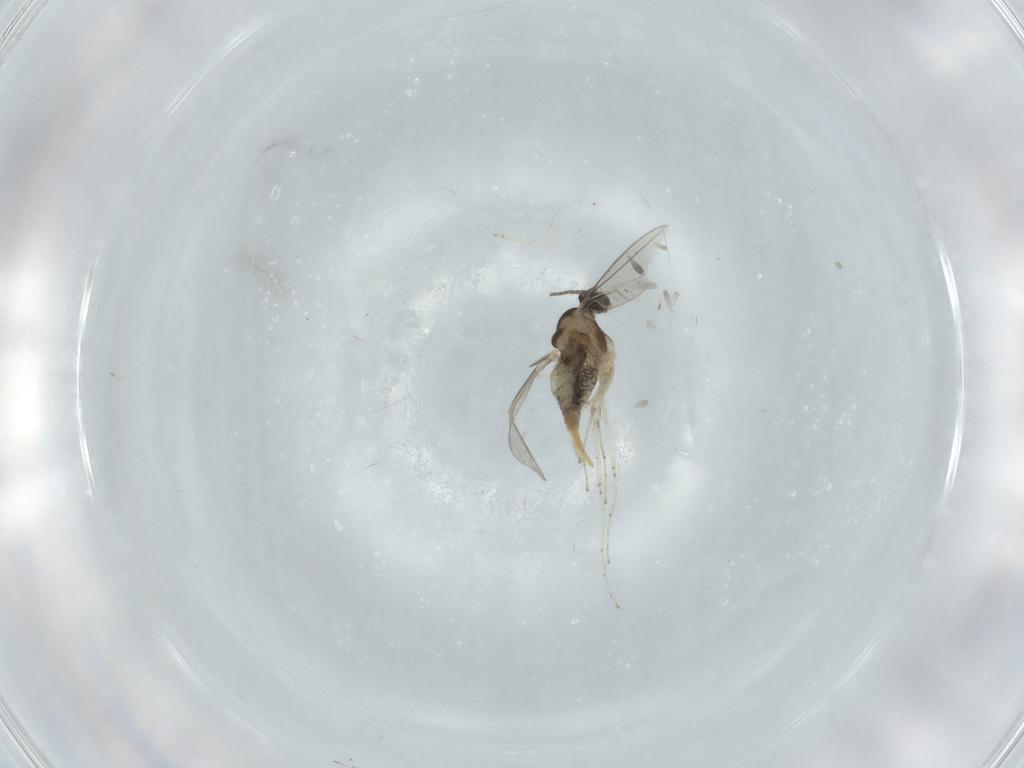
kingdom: Animalia
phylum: Arthropoda
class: Insecta
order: Diptera
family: Cecidomyiidae
